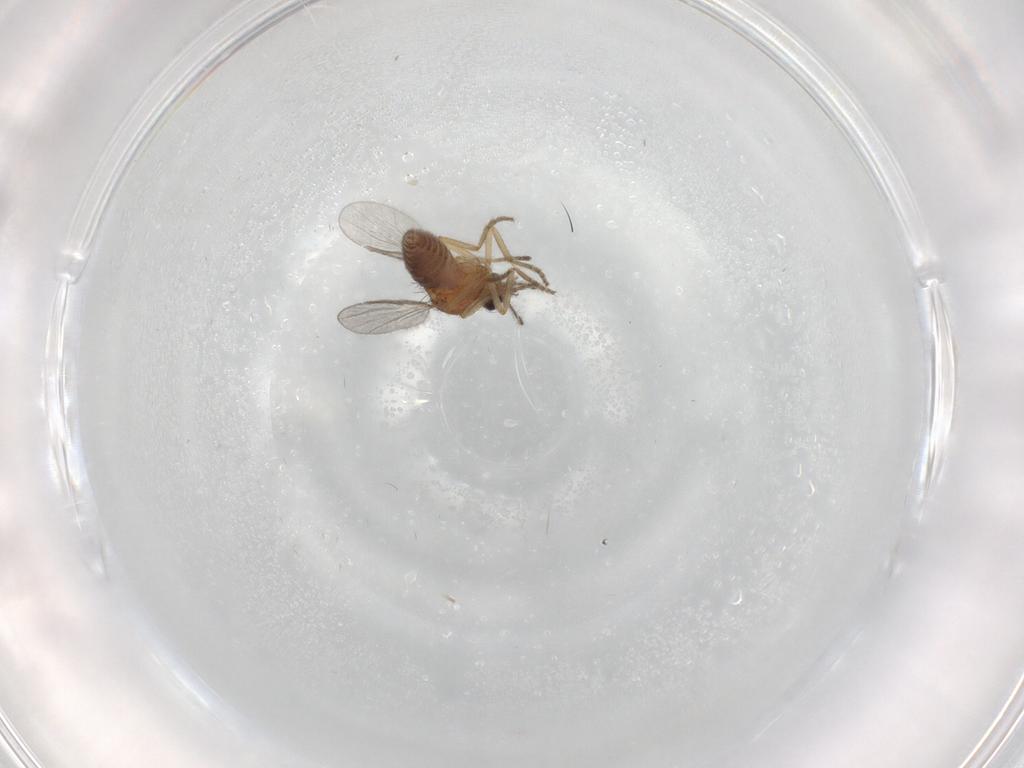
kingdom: Animalia
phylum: Arthropoda
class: Insecta
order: Diptera
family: Ceratopogonidae
